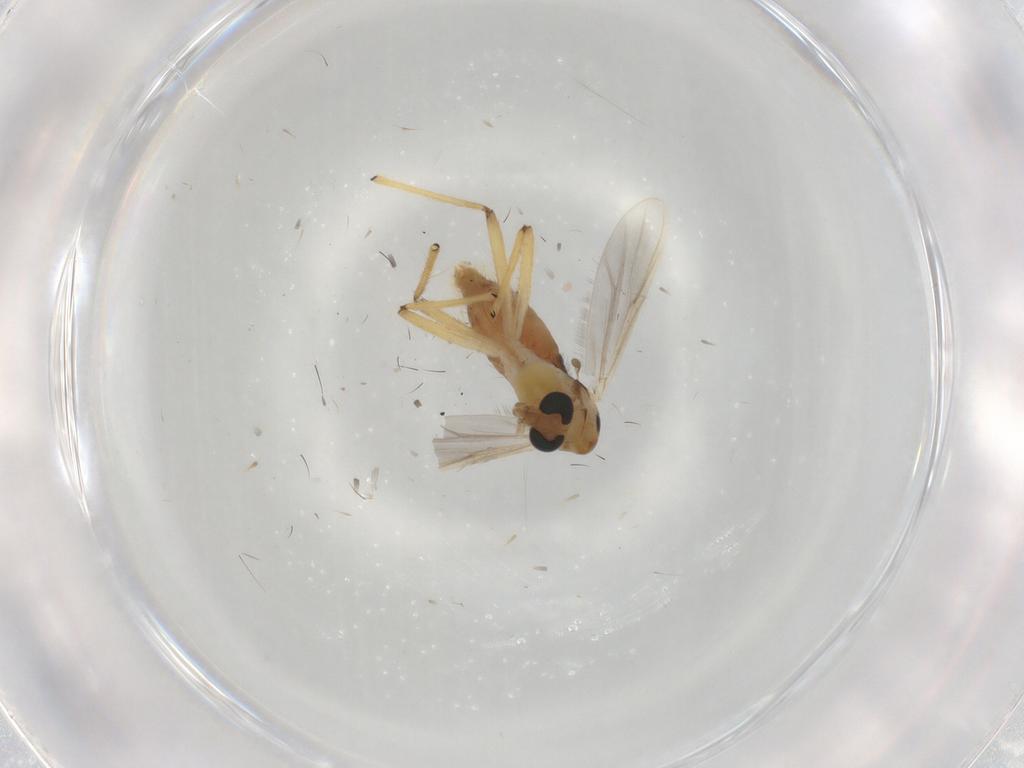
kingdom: Animalia
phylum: Arthropoda
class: Insecta
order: Diptera
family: Chironomidae
